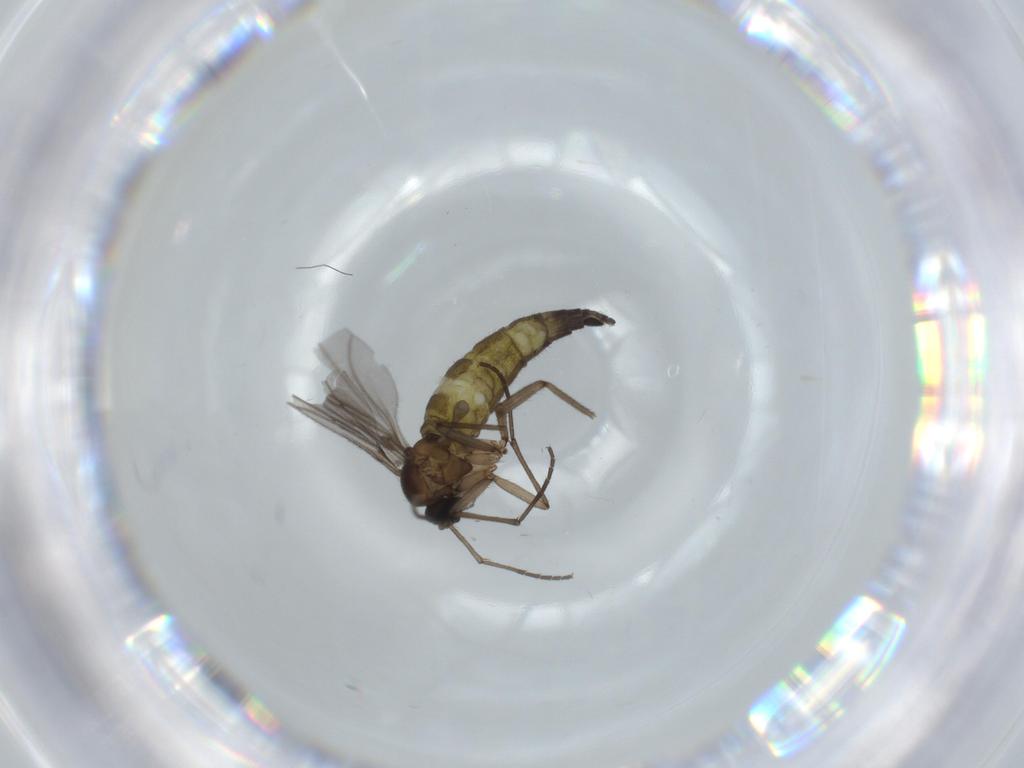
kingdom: Animalia
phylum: Arthropoda
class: Insecta
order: Diptera
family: Sciaridae
